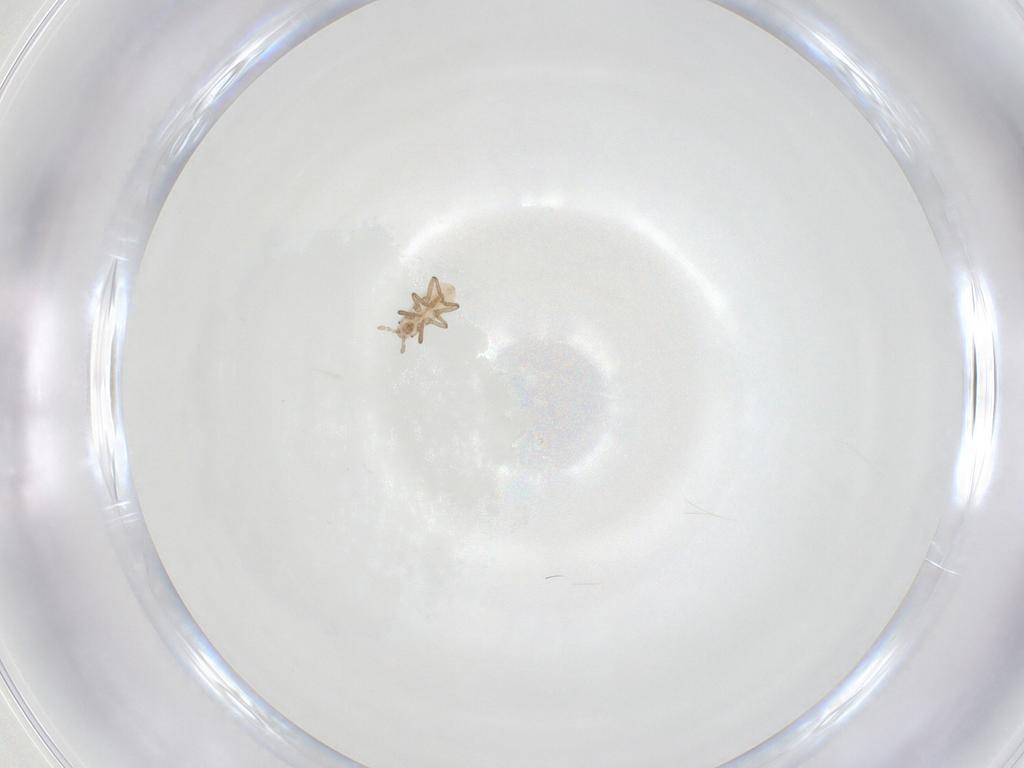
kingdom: Animalia
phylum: Arthropoda
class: Insecta
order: Hemiptera
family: Aphididae
